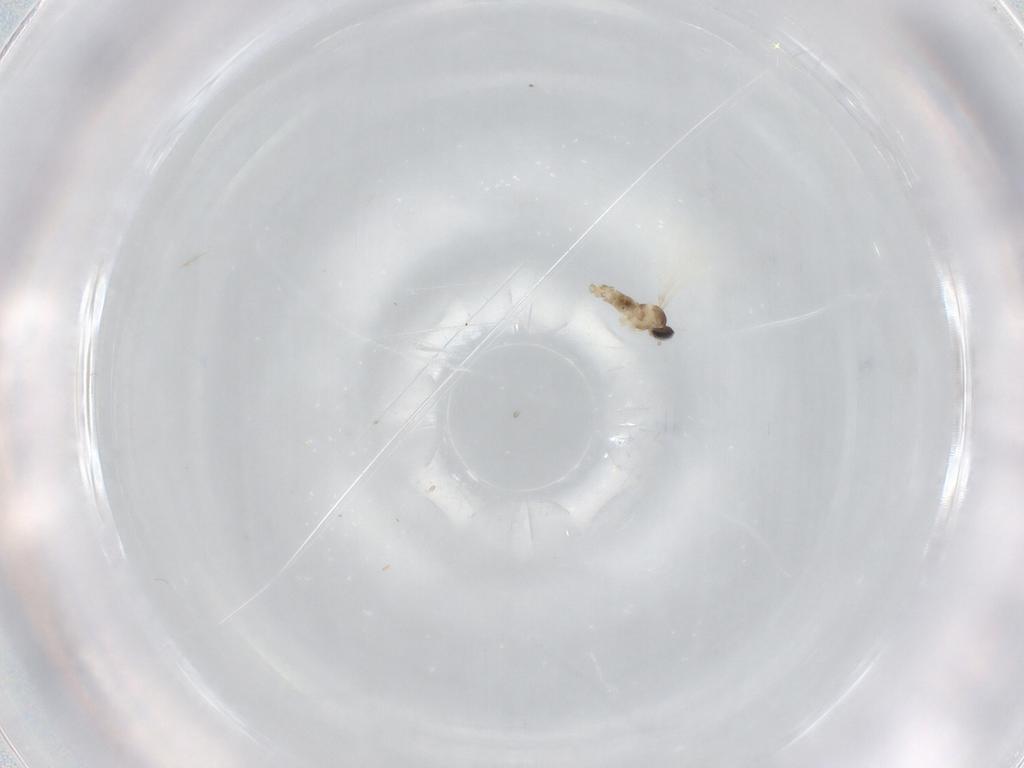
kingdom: Animalia
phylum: Arthropoda
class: Insecta
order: Diptera
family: Cecidomyiidae
